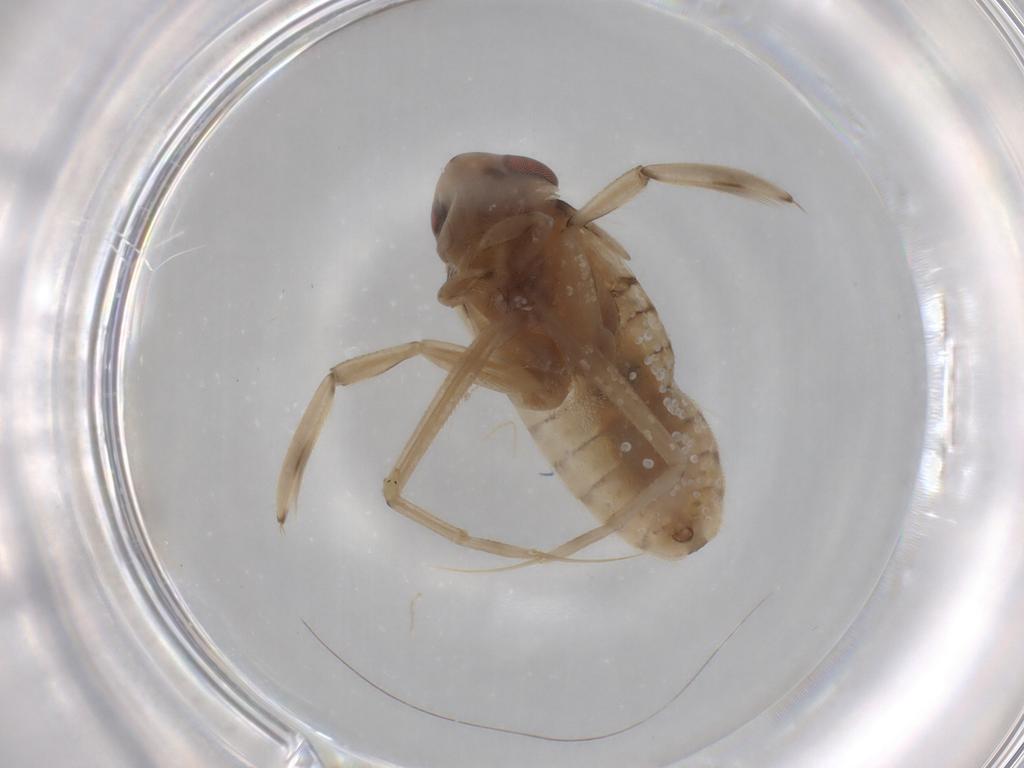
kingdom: Animalia
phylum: Arthropoda
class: Insecta
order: Hemiptera
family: Corixidae
